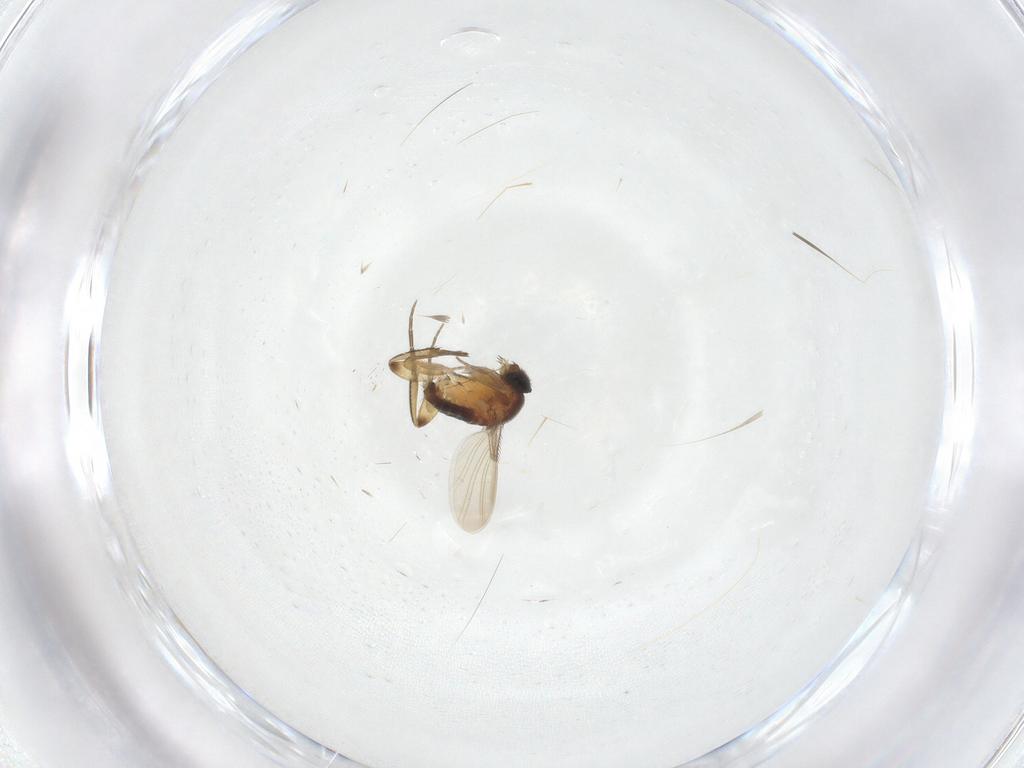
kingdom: Animalia
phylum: Arthropoda
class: Insecta
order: Diptera
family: Phoridae
